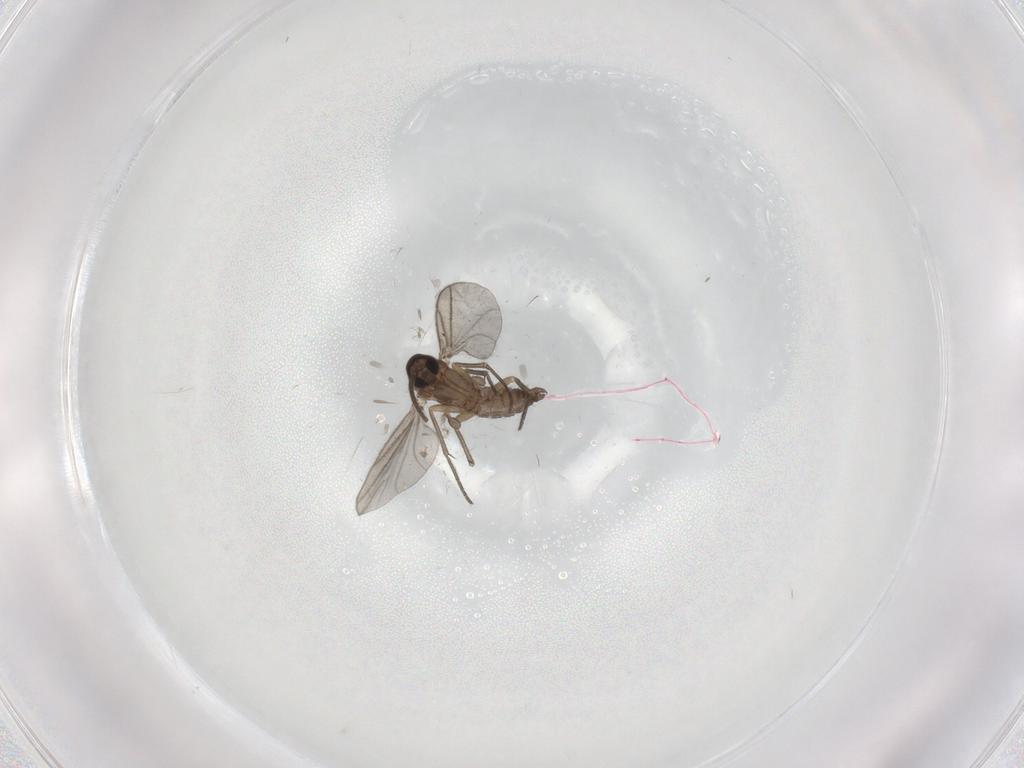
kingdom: Animalia
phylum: Arthropoda
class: Insecta
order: Diptera
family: Sciaridae
